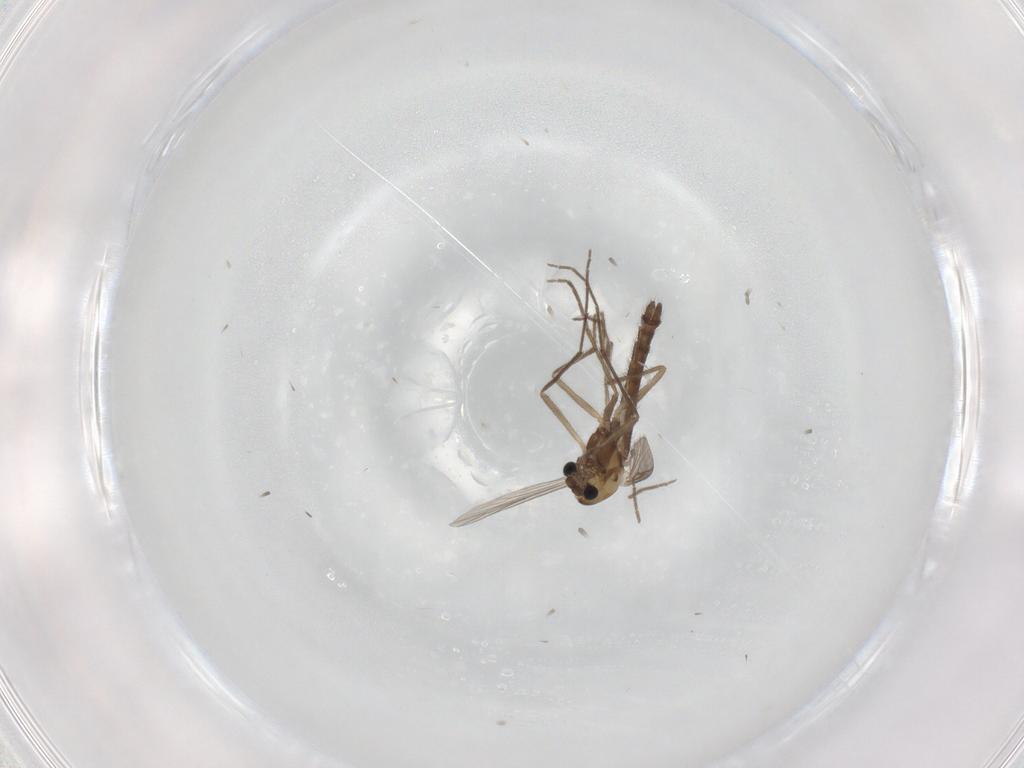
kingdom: Animalia
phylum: Arthropoda
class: Insecta
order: Diptera
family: Chironomidae
